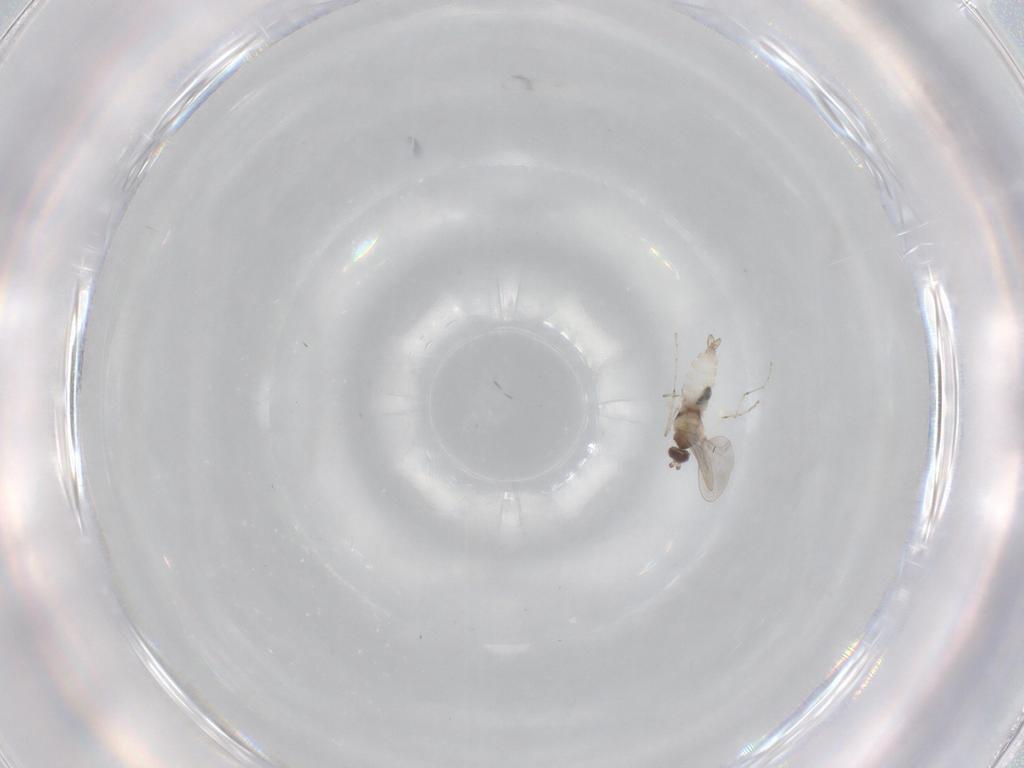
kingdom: Animalia
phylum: Arthropoda
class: Insecta
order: Diptera
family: Cecidomyiidae
